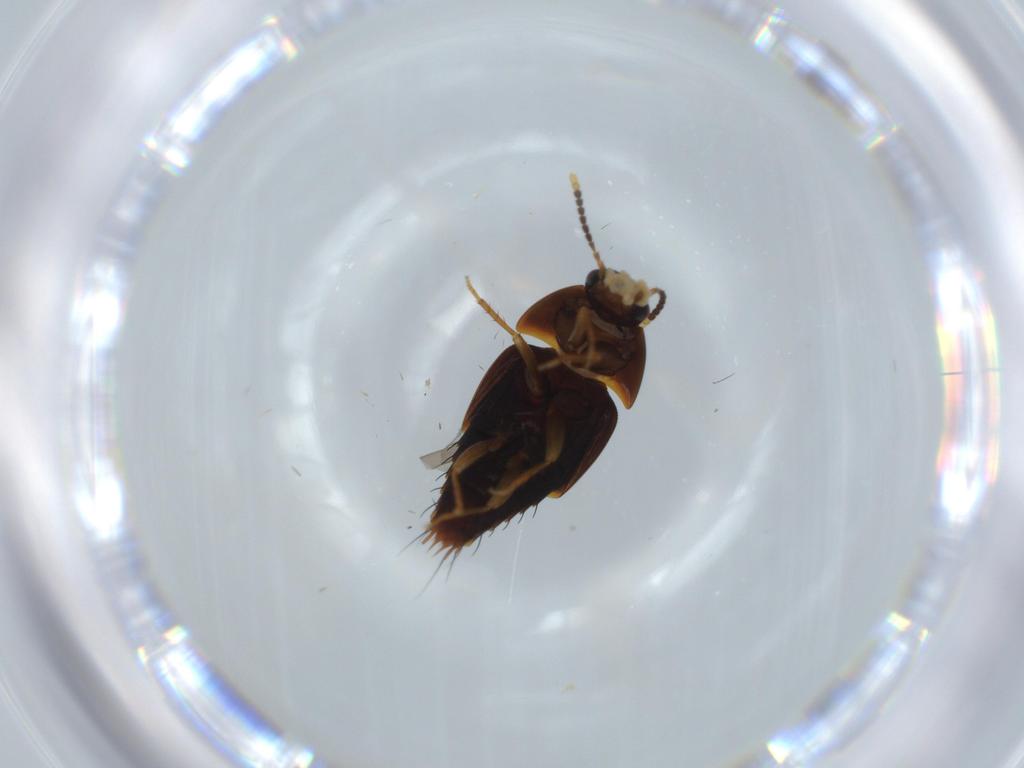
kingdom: Animalia
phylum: Arthropoda
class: Insecta
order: Coleoptera
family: Staphylinidae
